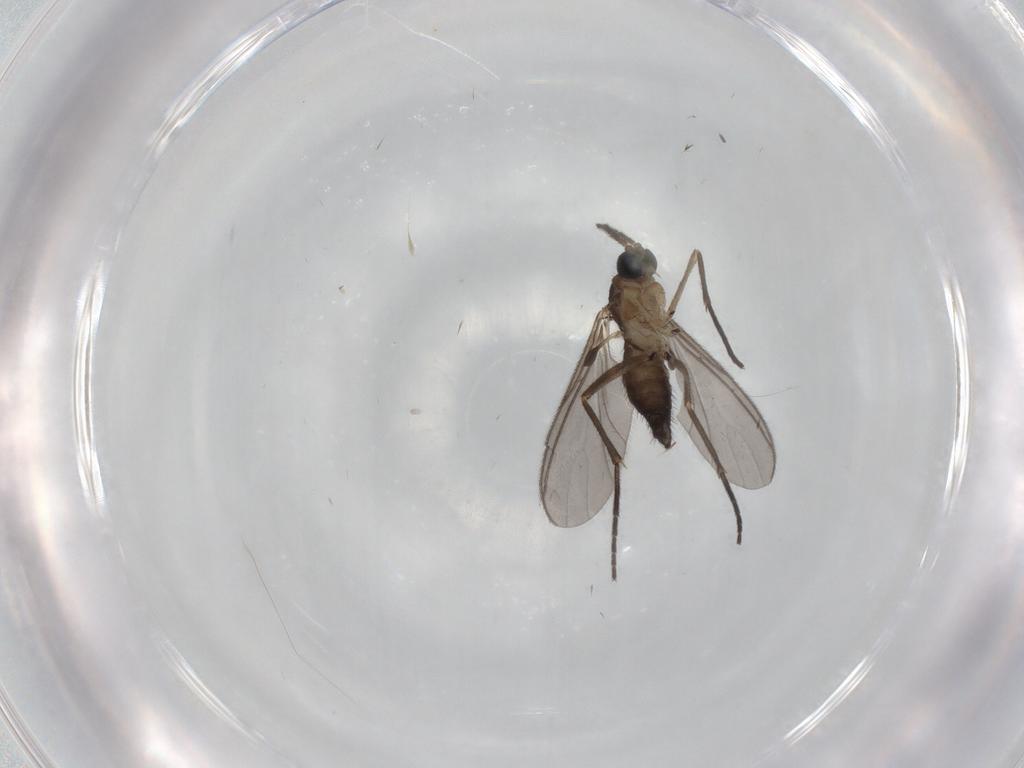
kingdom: Animalia
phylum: Arthropoda
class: Insecta
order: Diptera
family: Sciaridae
